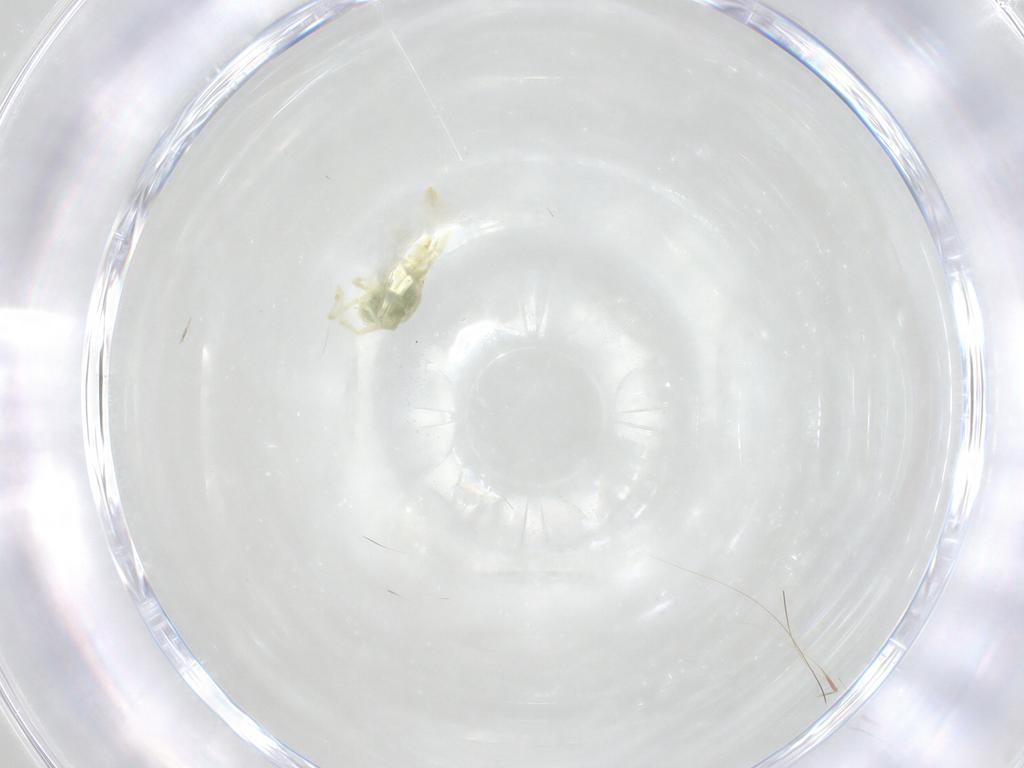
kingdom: Animalia
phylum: Arthropoda
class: Arachnida
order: Trombidiformes
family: Erythraeidae
